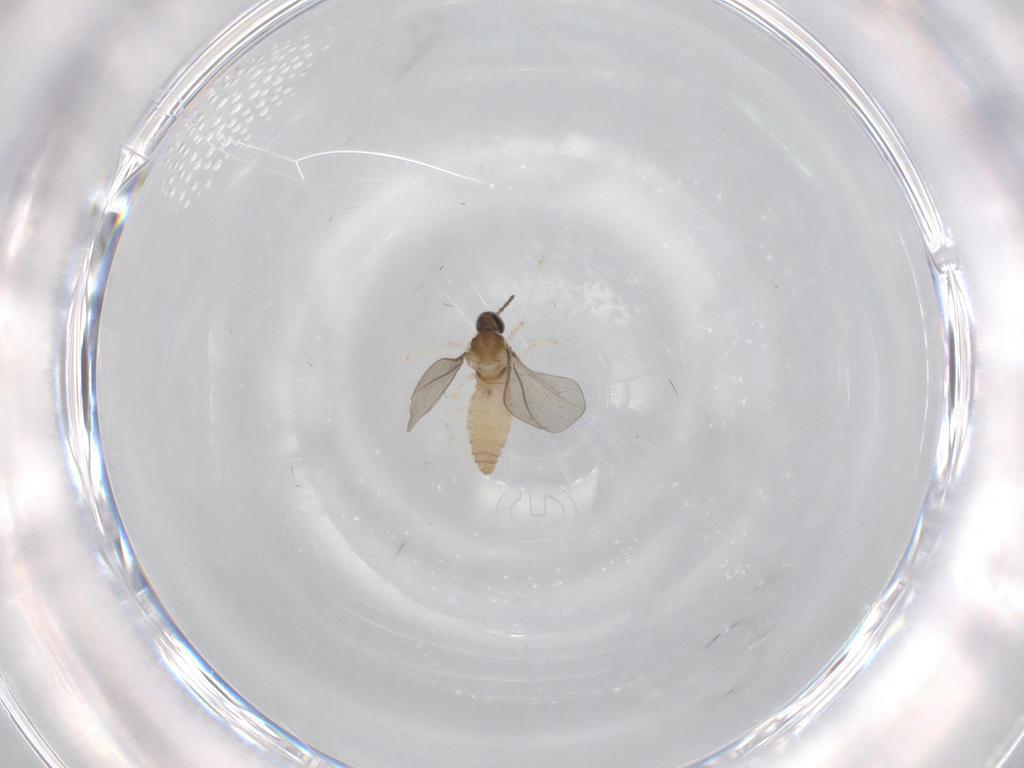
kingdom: Animalia
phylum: Arthropoda
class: Insecta
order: Diptera
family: Cecidomyiidae
